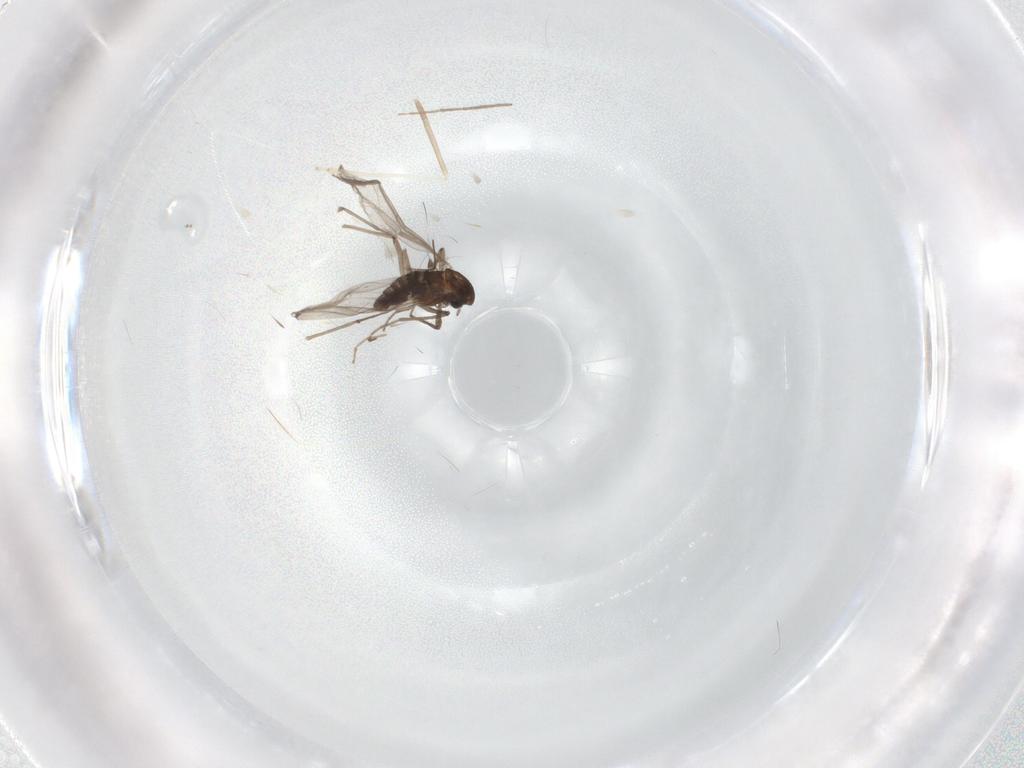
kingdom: Animalia
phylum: Arthropoda
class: Insecta
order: Diptera
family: Chironomidae
